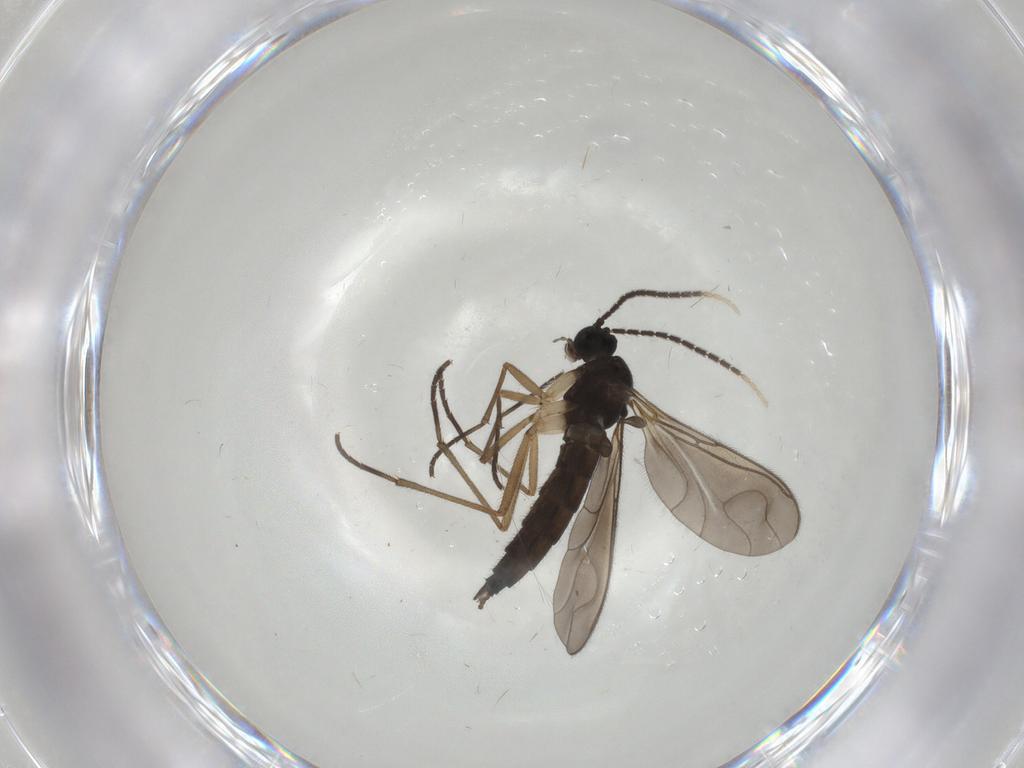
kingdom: Animalia
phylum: Arthropoda
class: Insecta
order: Diptera
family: Sciaridae
